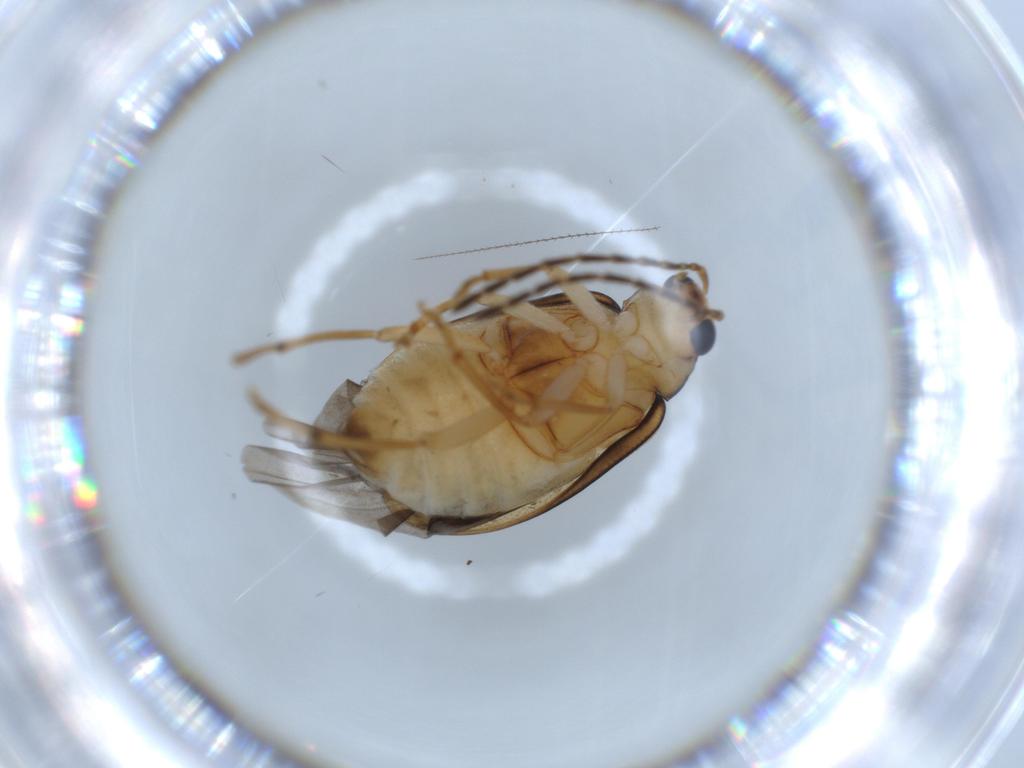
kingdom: Animalia
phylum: Arthropoda
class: Insecta
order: Coleoptera
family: Chrysomelidae
